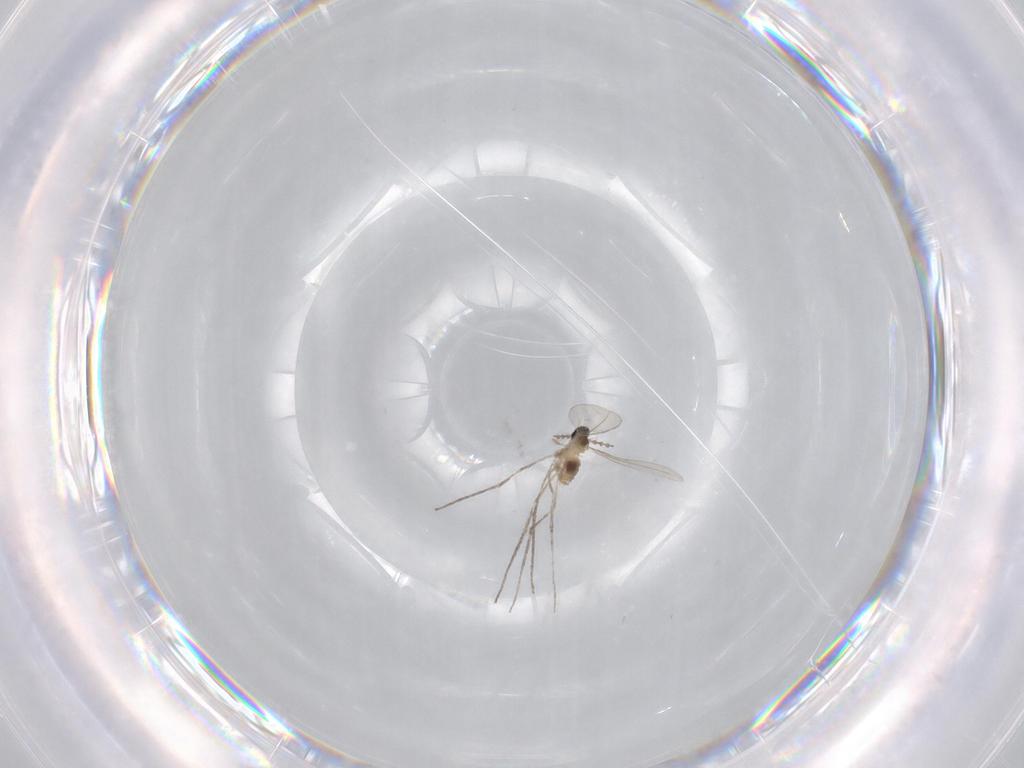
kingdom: Animalia
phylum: Arthropoda
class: Insecta
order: Diptera
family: Cecidomyiidae
